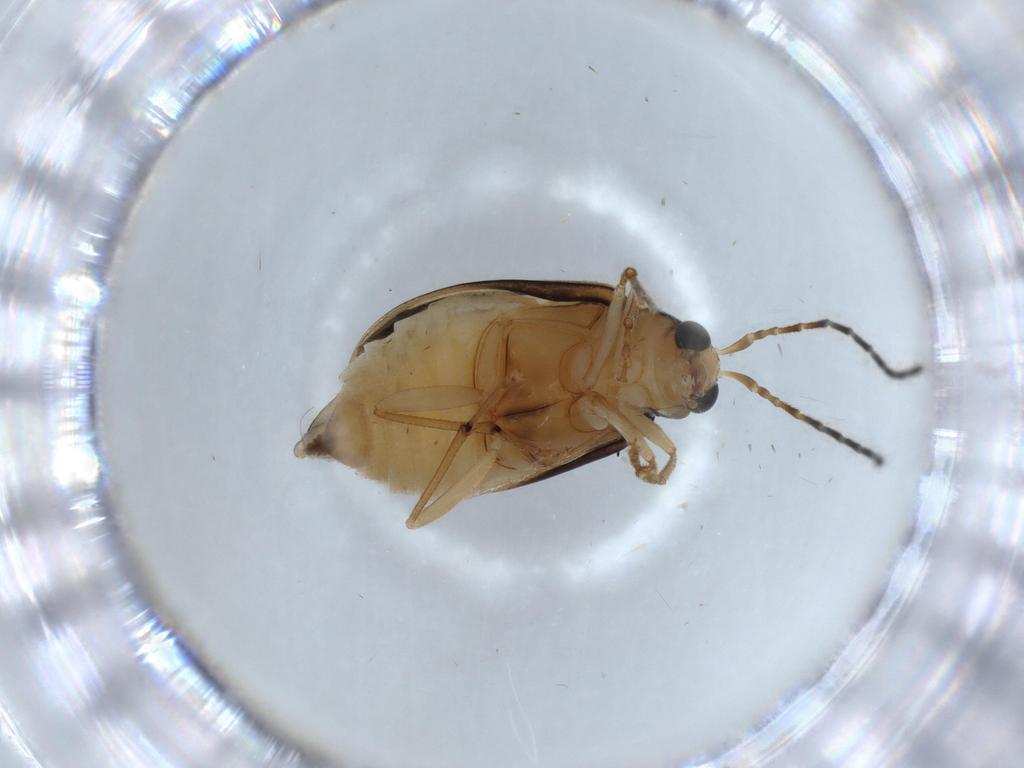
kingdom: Animalia
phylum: Arthropoda
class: Insecta
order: Coleoptera
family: Chrysomelidae
